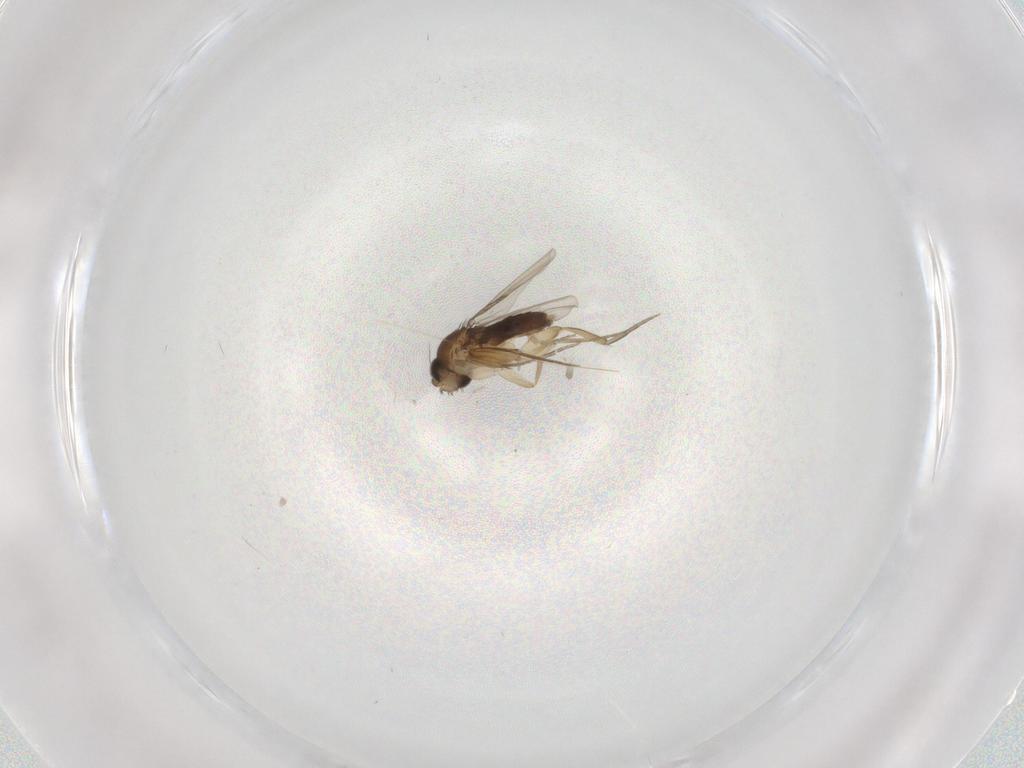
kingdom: Animalia
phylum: Arthropoda
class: Insecta
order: Diptera
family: Phoridae
